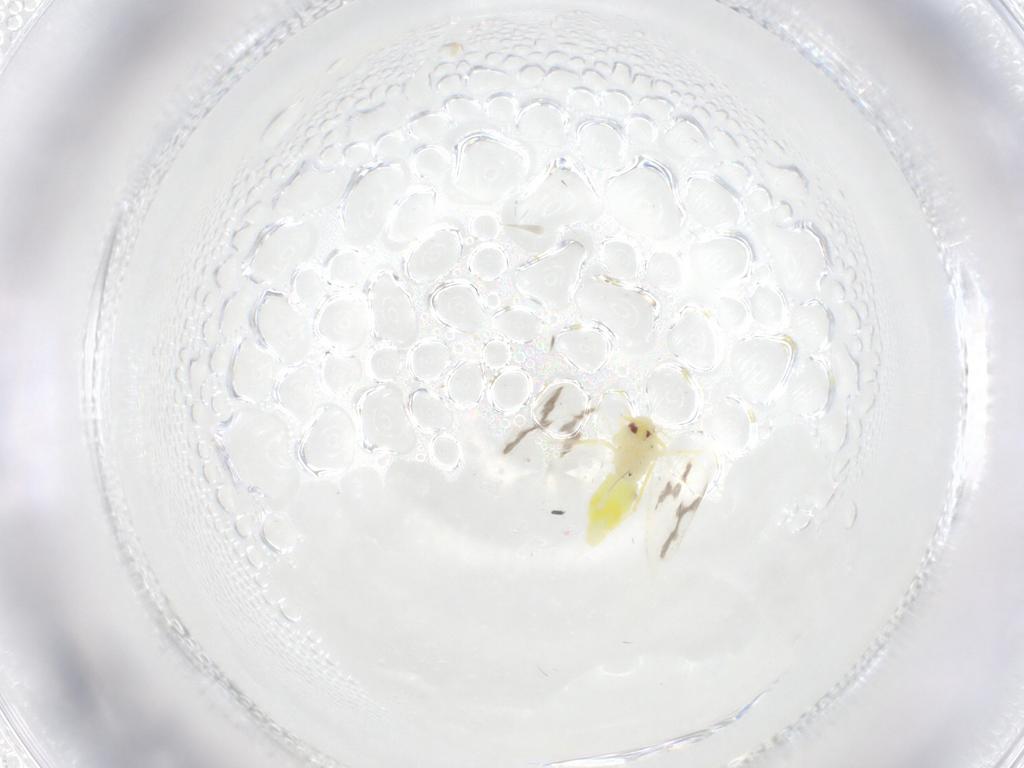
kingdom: Animalia
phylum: Arthropoda
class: Insecta
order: Hemiptera
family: Aleyrodidae
